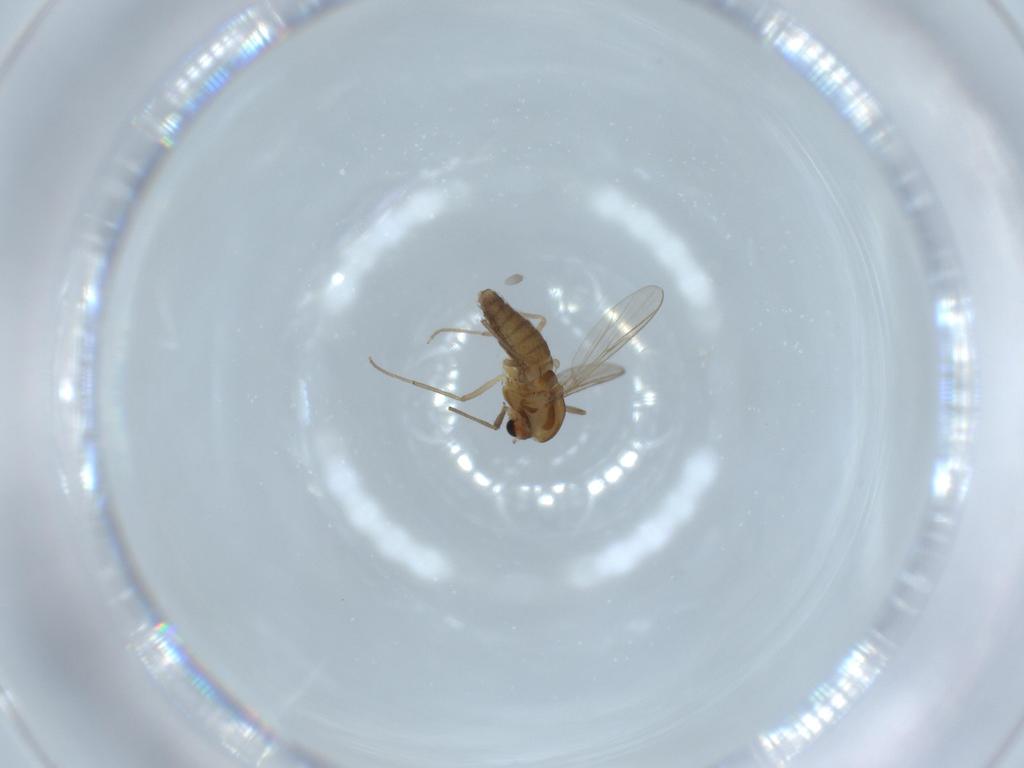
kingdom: Animalia
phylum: Arthropoda
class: Insecta
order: Diptera
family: Chironomidae
